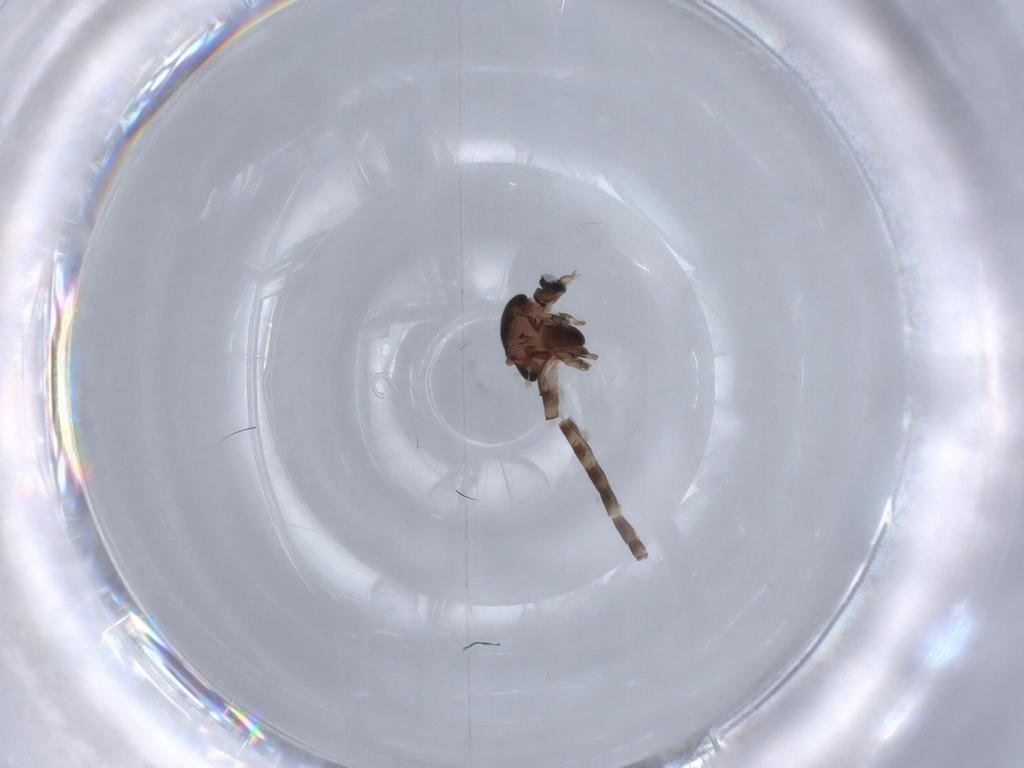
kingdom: Animalia
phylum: Arthropoda
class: Insecta
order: Diptera
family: Chironomidae
